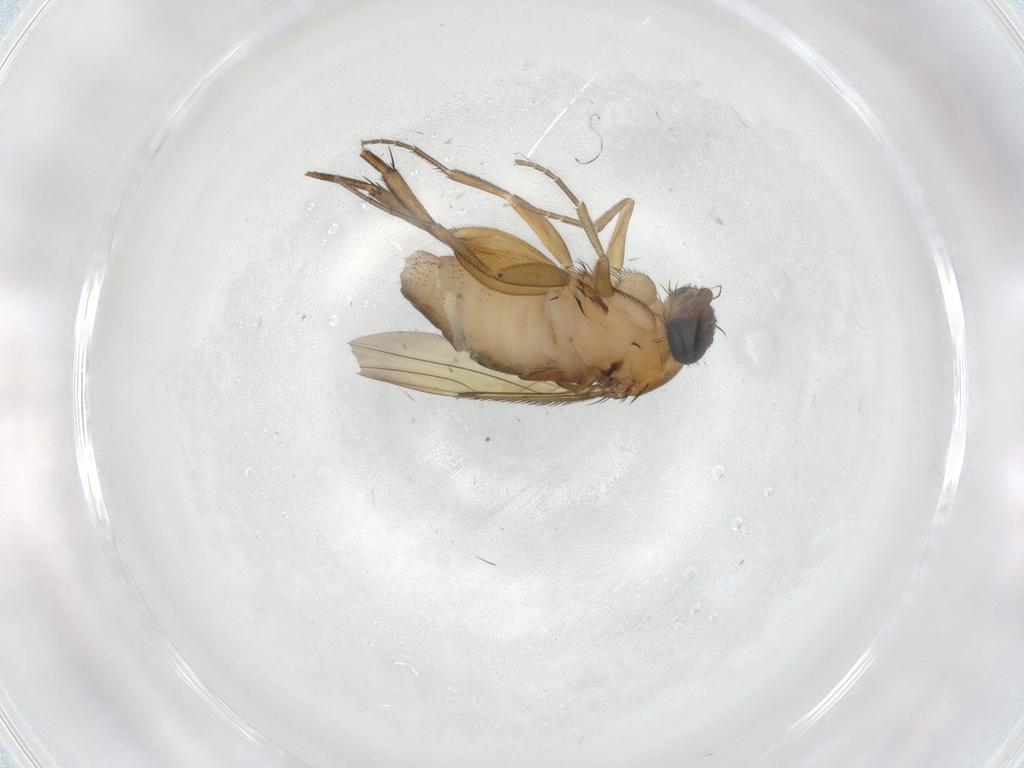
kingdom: Animalia
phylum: Arthropoda
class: Insecta
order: Diptera
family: Phoridae
